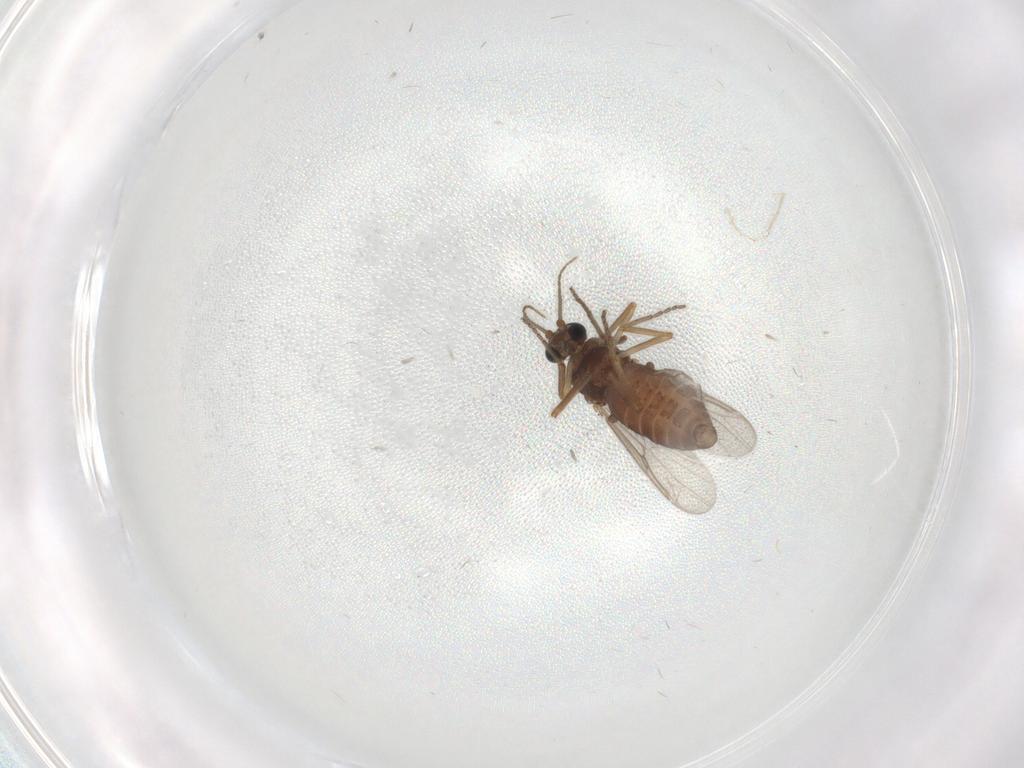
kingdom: Animalia
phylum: Arthropoda
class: Insecta
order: Diptera
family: Ceratopogonidae
